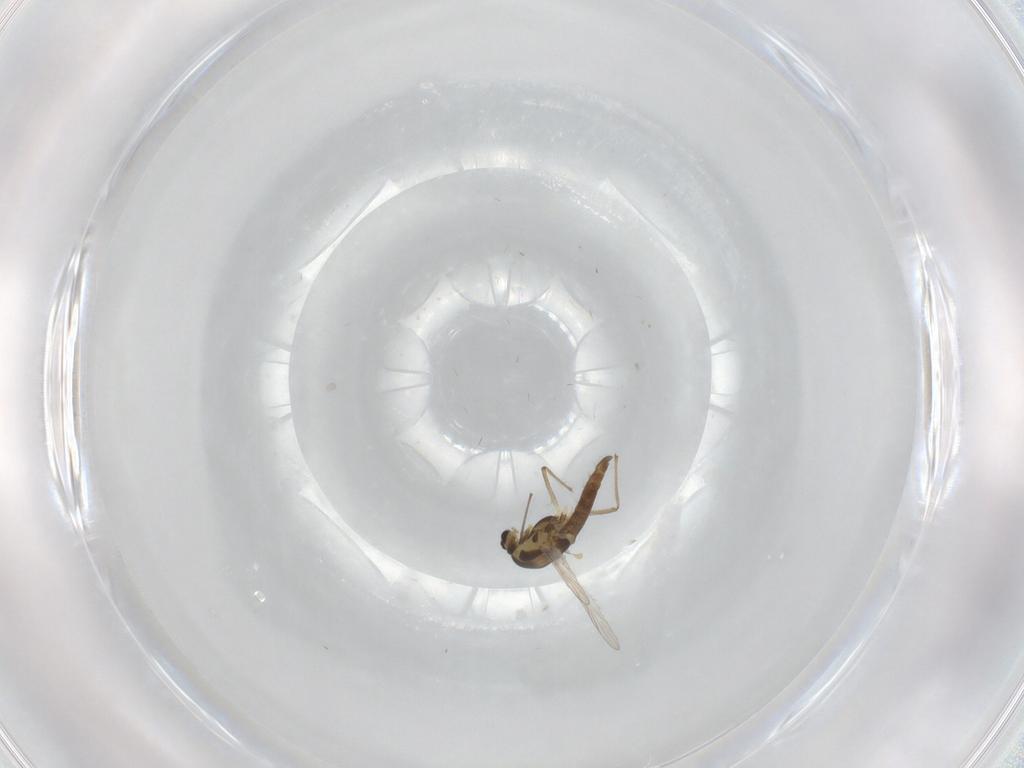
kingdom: Animalia
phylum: Arthropoda
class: Insecta
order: Diptera
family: Chironomidae
